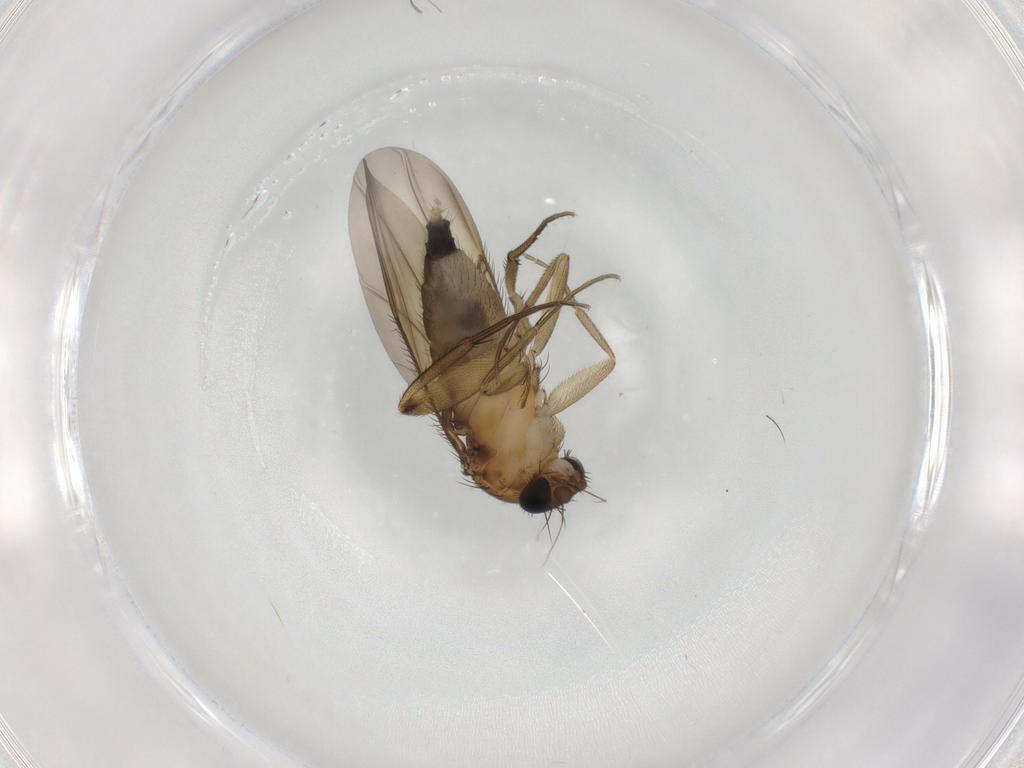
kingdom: Animalia
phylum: Arthropoda
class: Insecta
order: Diptera
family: Phoridae
